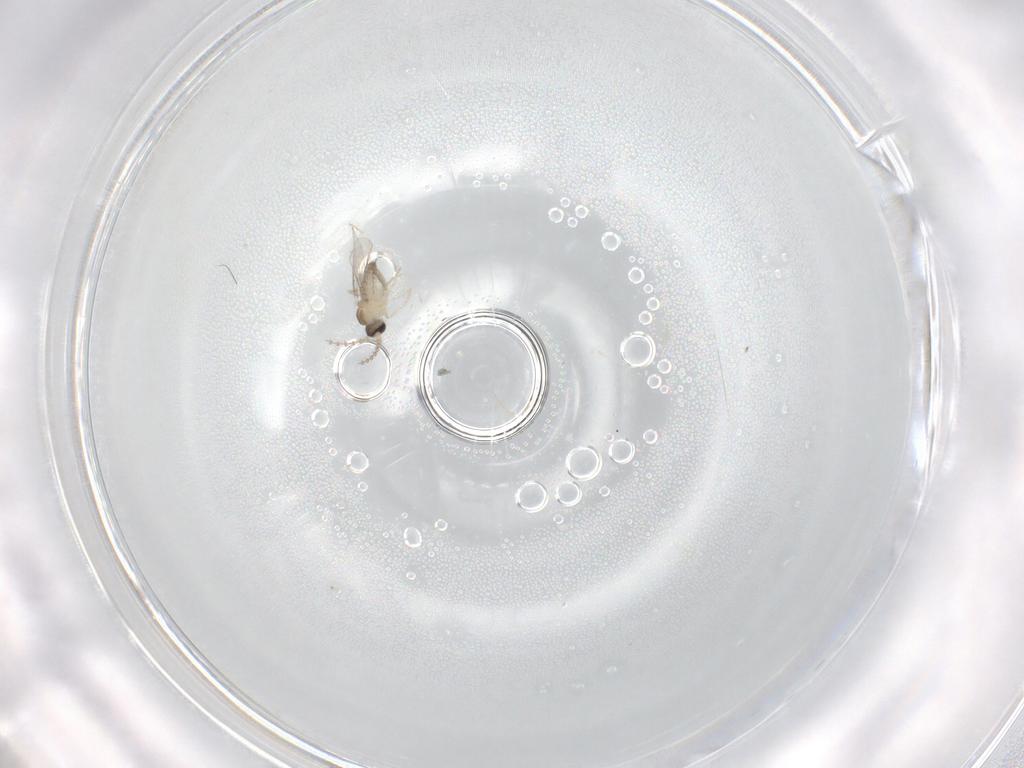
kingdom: Animalia
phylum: Arthropoda
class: Insecta
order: Diptera
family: Cecidomyiidae
